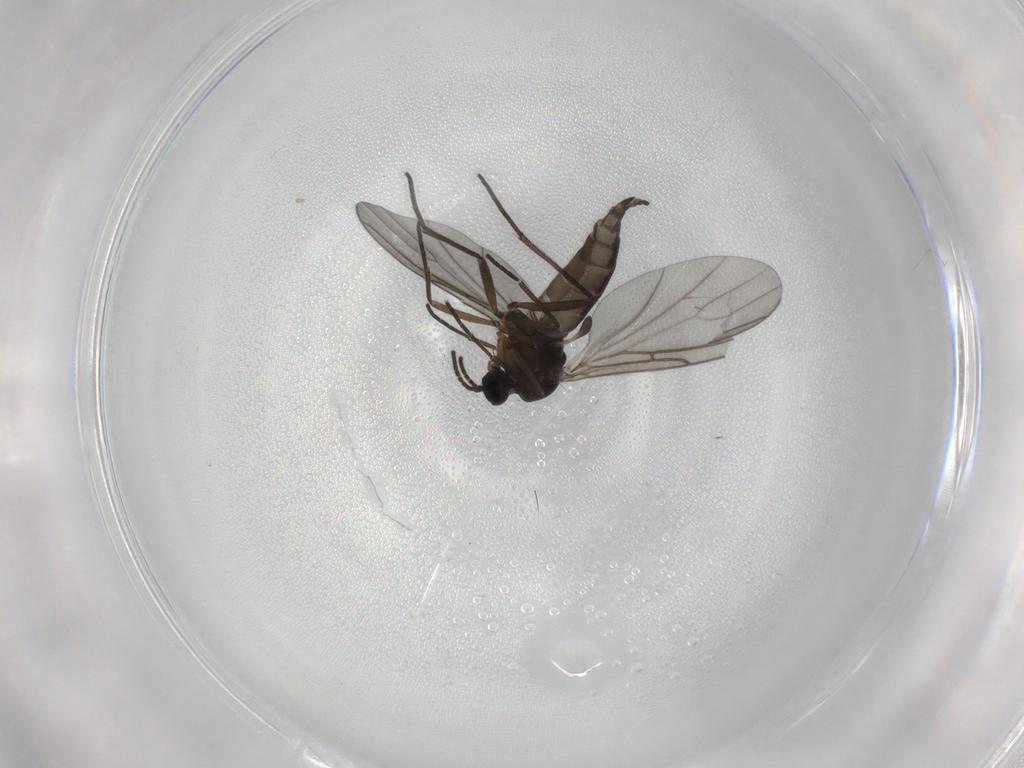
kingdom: Animalia
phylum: Arthropoda
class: Insecta
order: Diptera
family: Sciaridae
